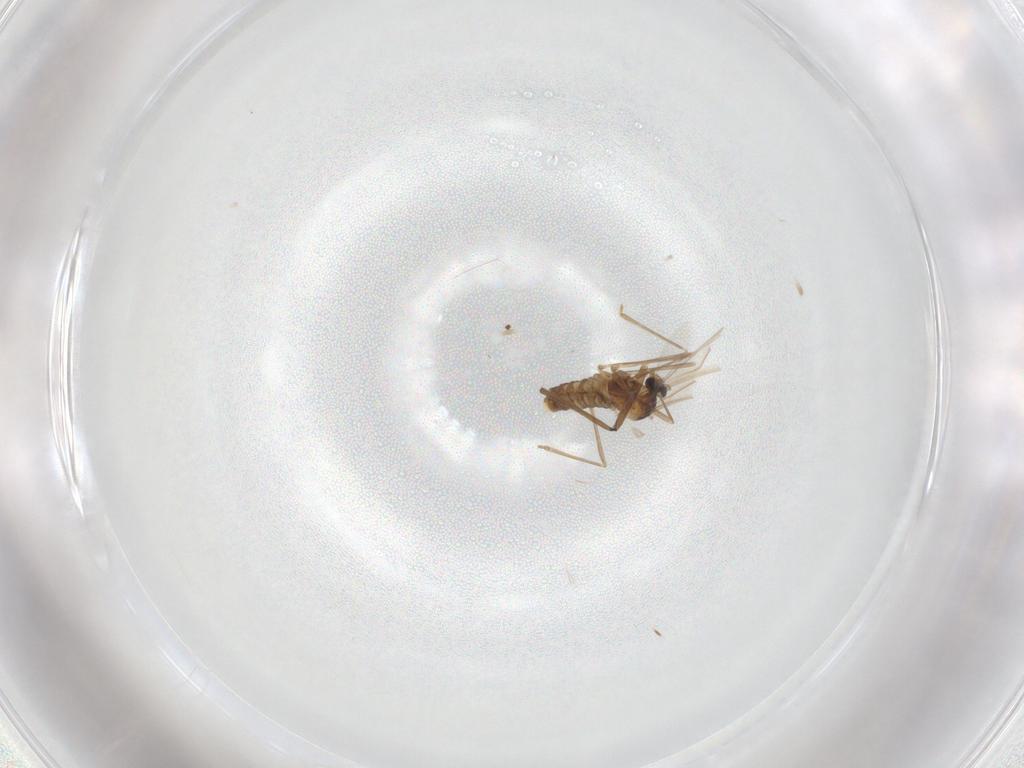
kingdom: Animalia
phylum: Arthropoda
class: Insecta
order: Diptera
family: Cecidomyiidae
